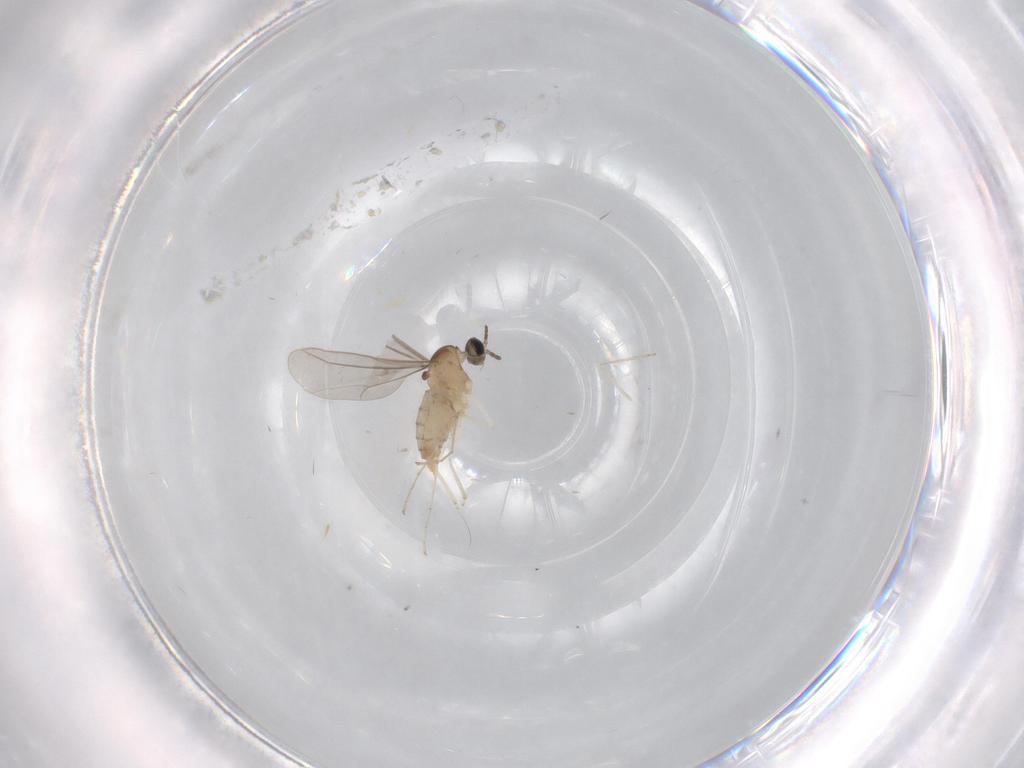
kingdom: Animalia
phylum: Arthropoda
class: Insecta
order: Diptera
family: Cecidomyiidae
